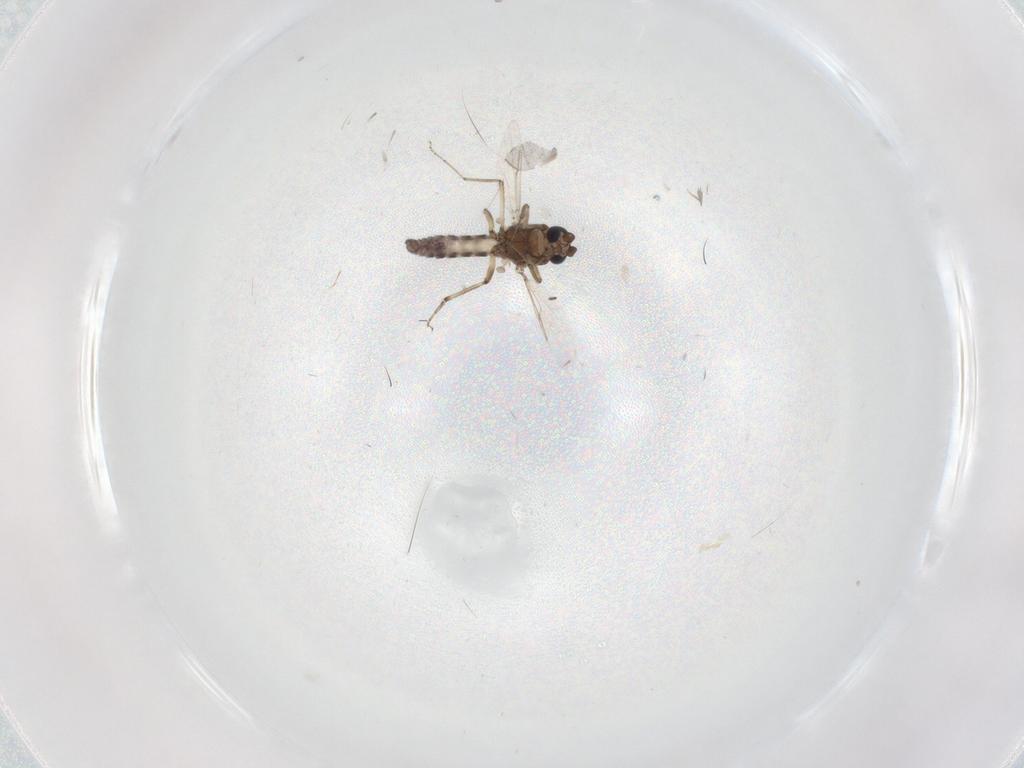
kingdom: Animalia
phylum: Arthropoda
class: Insecta
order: Diptera
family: Ceratopogonidae
